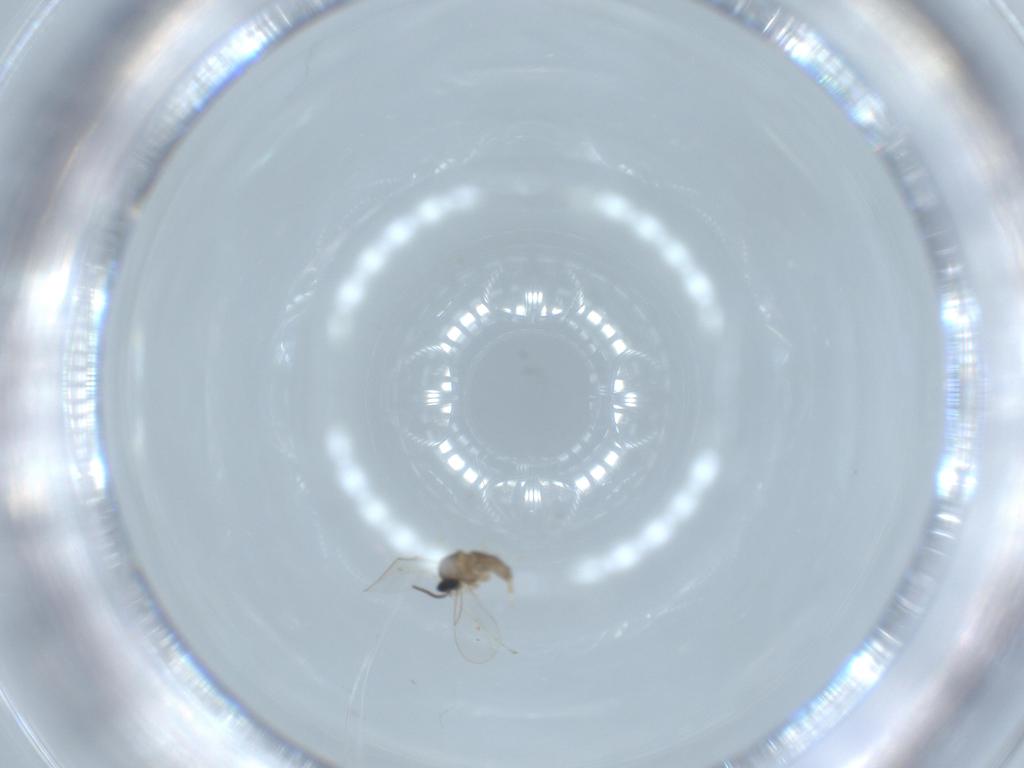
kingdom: Animalia
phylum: Arthropoda
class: Insecta
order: Diptera
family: Cecidomyiidae
